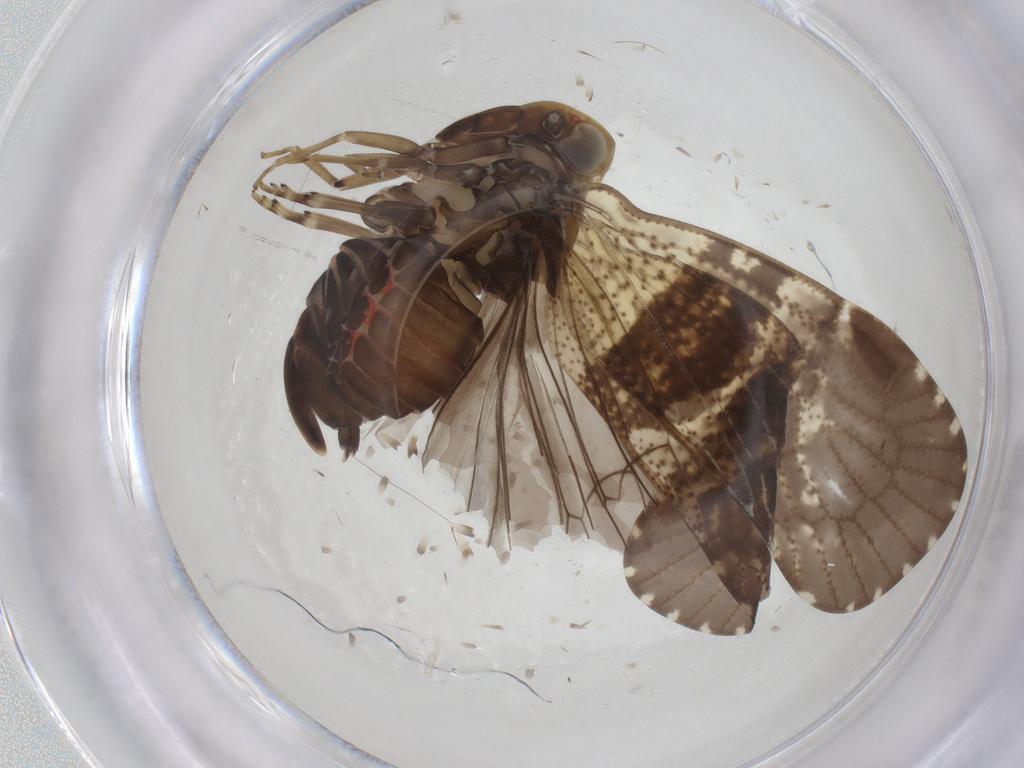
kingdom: Animalia
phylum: Arthropoda
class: Insecta
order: Hemiptera
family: Cixiidae
